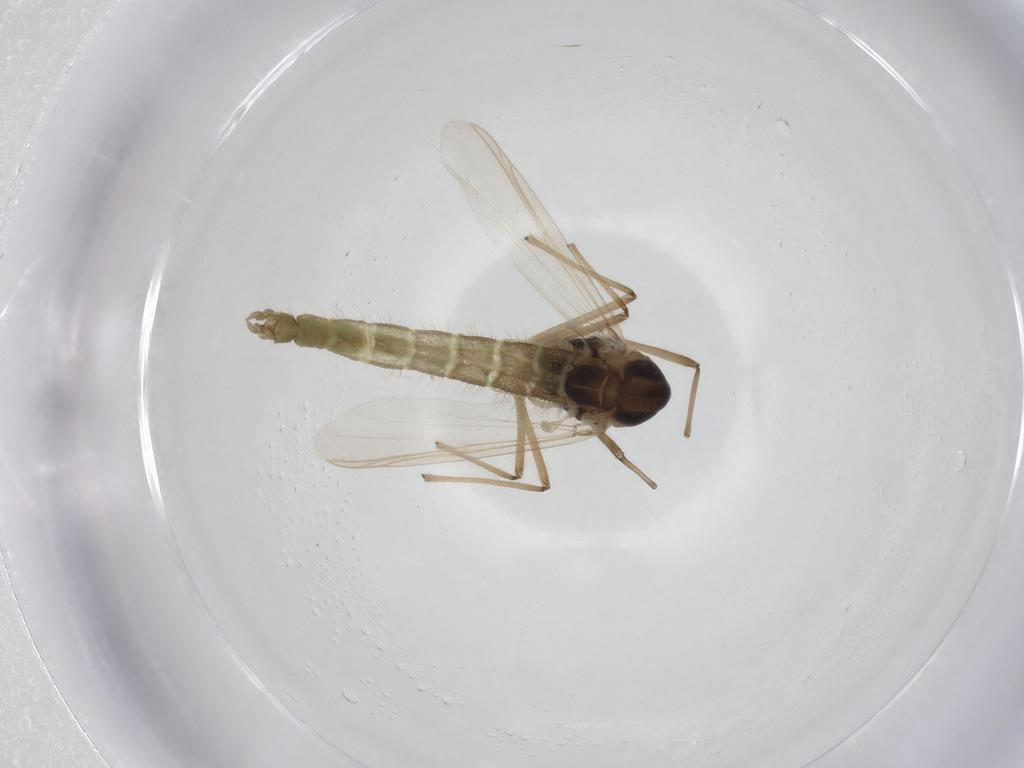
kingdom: Animalia
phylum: Arthropoda
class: Insecta
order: Diptera
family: Chironomidae
